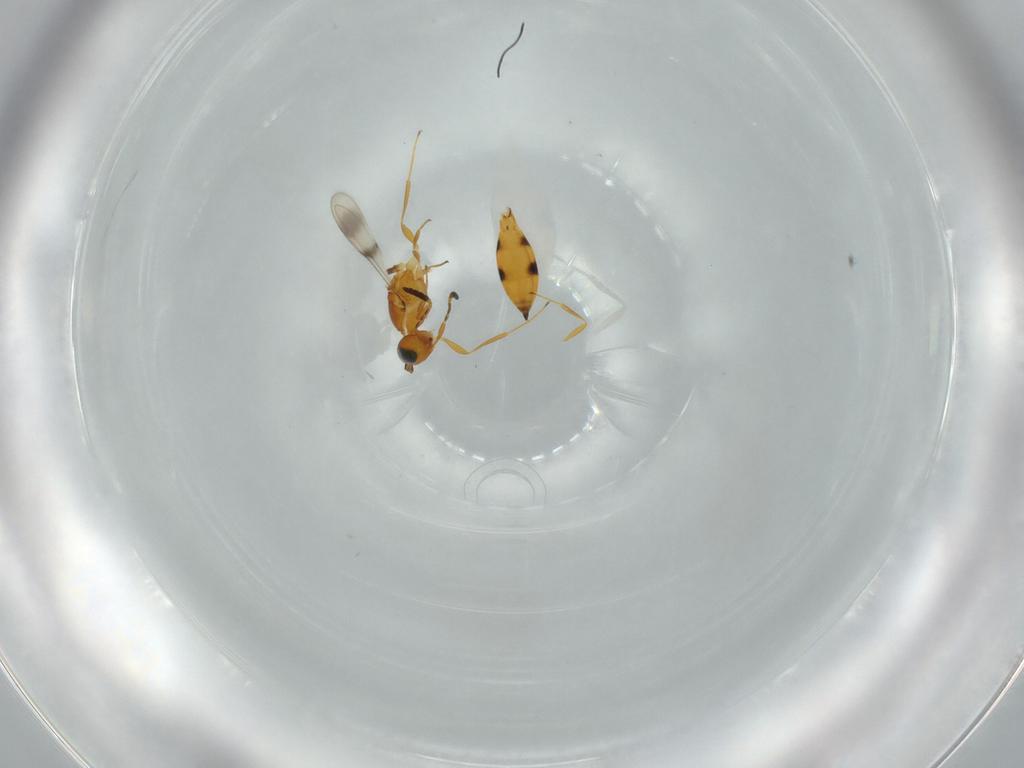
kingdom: Animalia
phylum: Arthropoda
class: Insecta
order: Hymenoptera
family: Scelionidae
